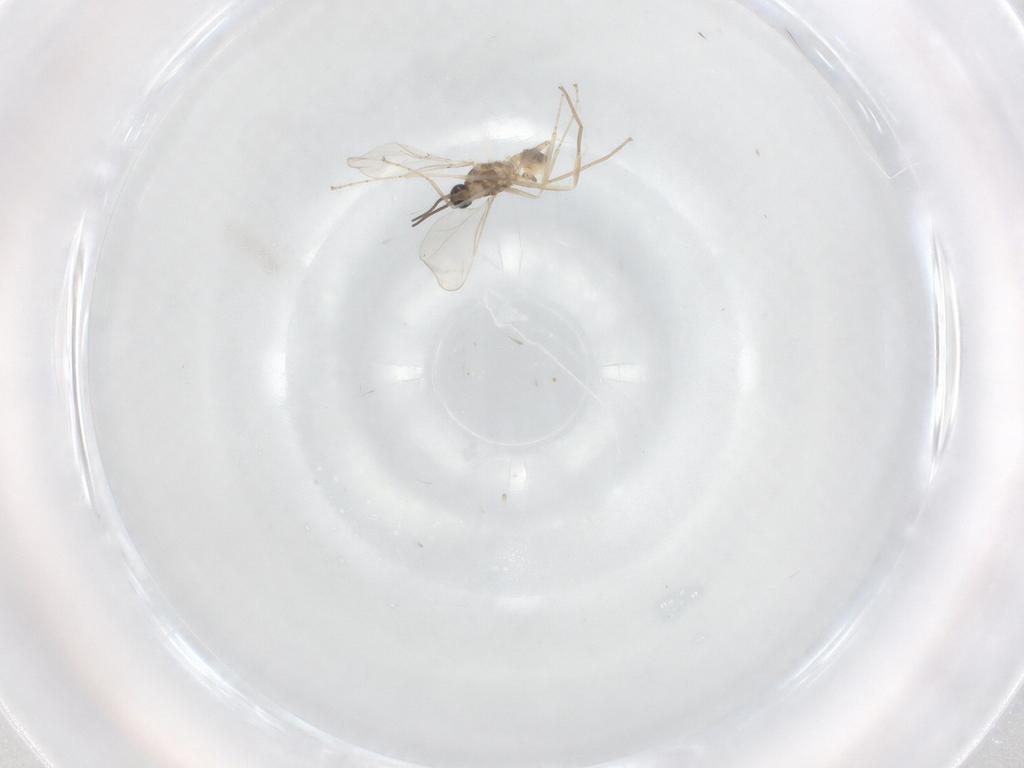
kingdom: Animalia
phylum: Arthropoda
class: Insecta
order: Diptera
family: Cecidomyiidae
